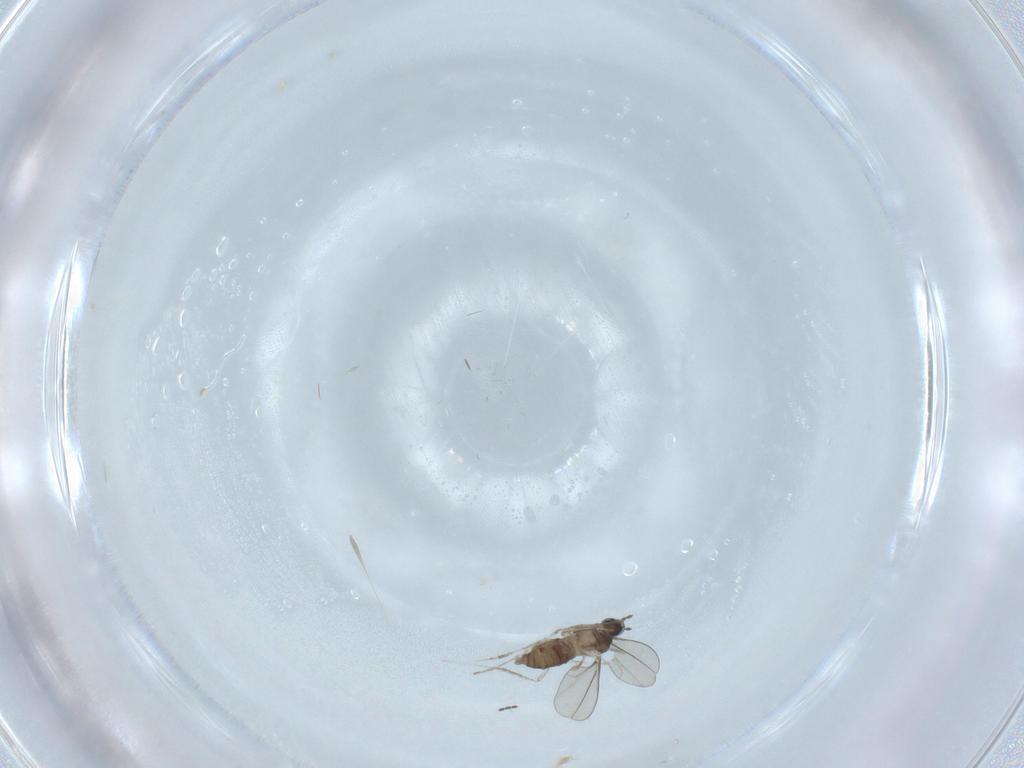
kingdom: Animalia
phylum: Arthropoda
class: Insecta
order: Diptera
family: Cecidomyiidae
